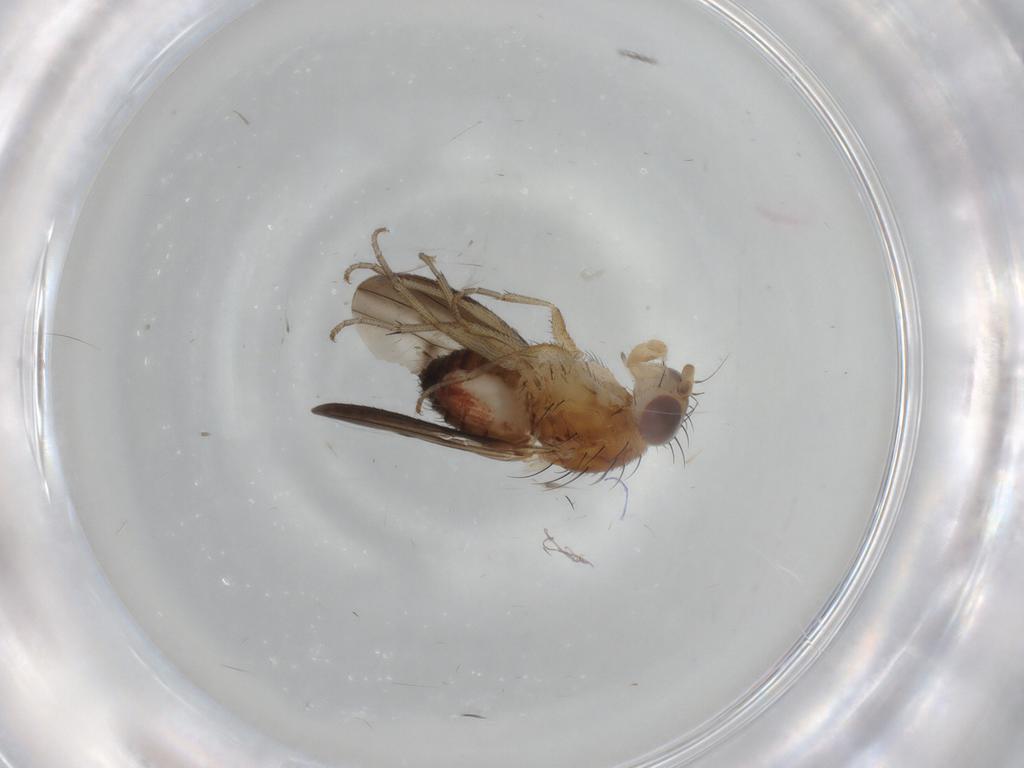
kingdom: Animalia
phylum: Arthropoda
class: Insecta
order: Diptera
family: Heleomyzidae
